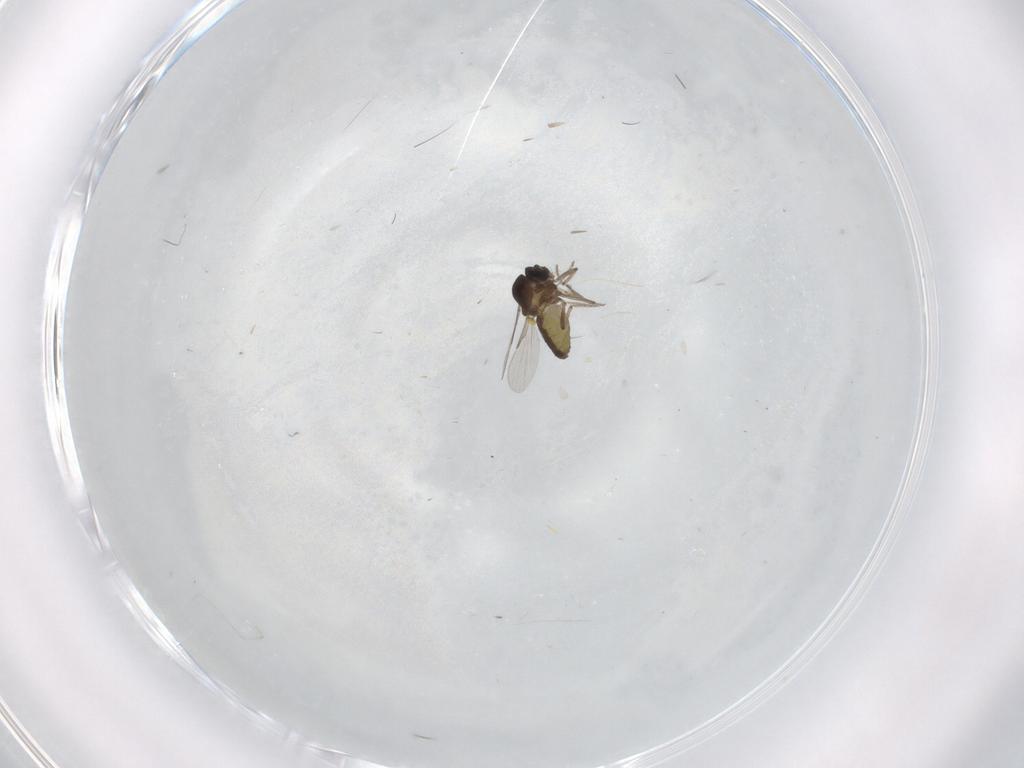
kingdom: Animalia
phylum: Arthropoda
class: Insecta
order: Diptera
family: Ceratopogonidae
